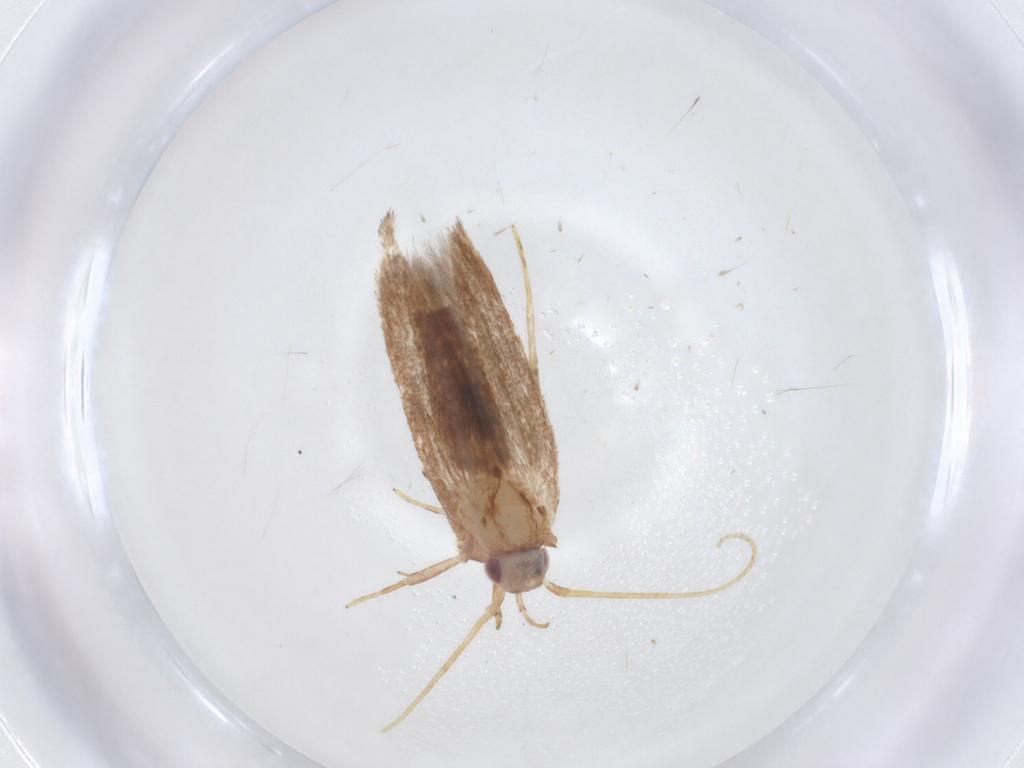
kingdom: Animalia
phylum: Arthropoda
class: Insecta
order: Lepidoptera
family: Cosmopterigidae
